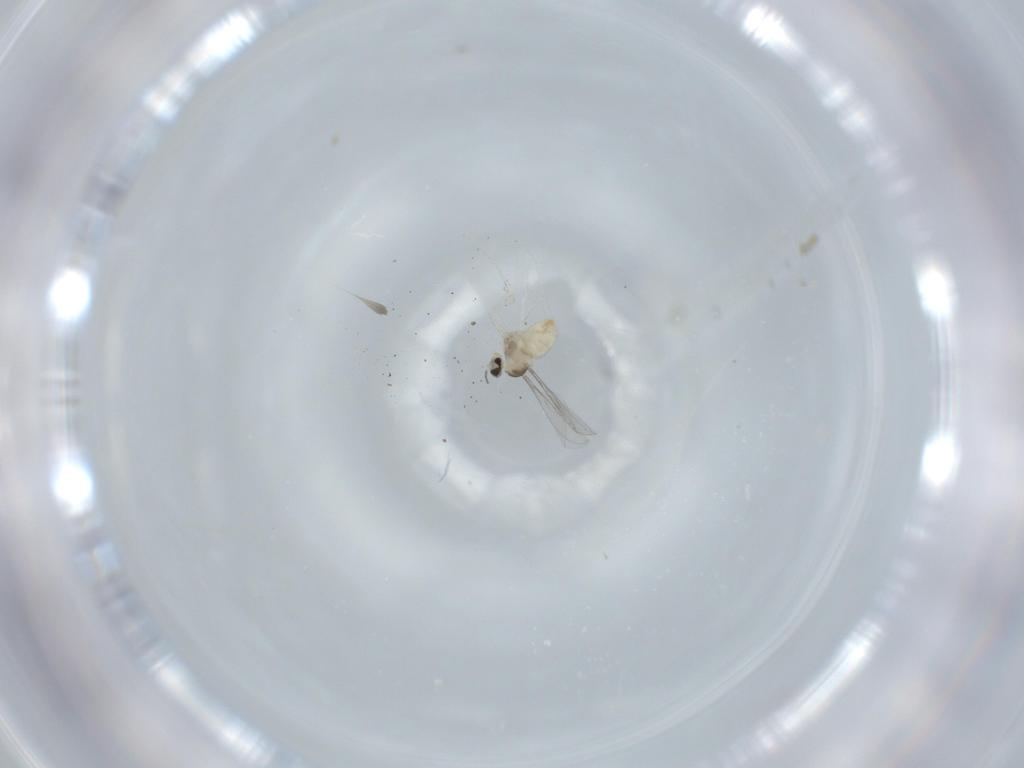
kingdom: Animalia
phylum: Arthropoda
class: Insecta
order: Diptera
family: Cecidomyiidae
